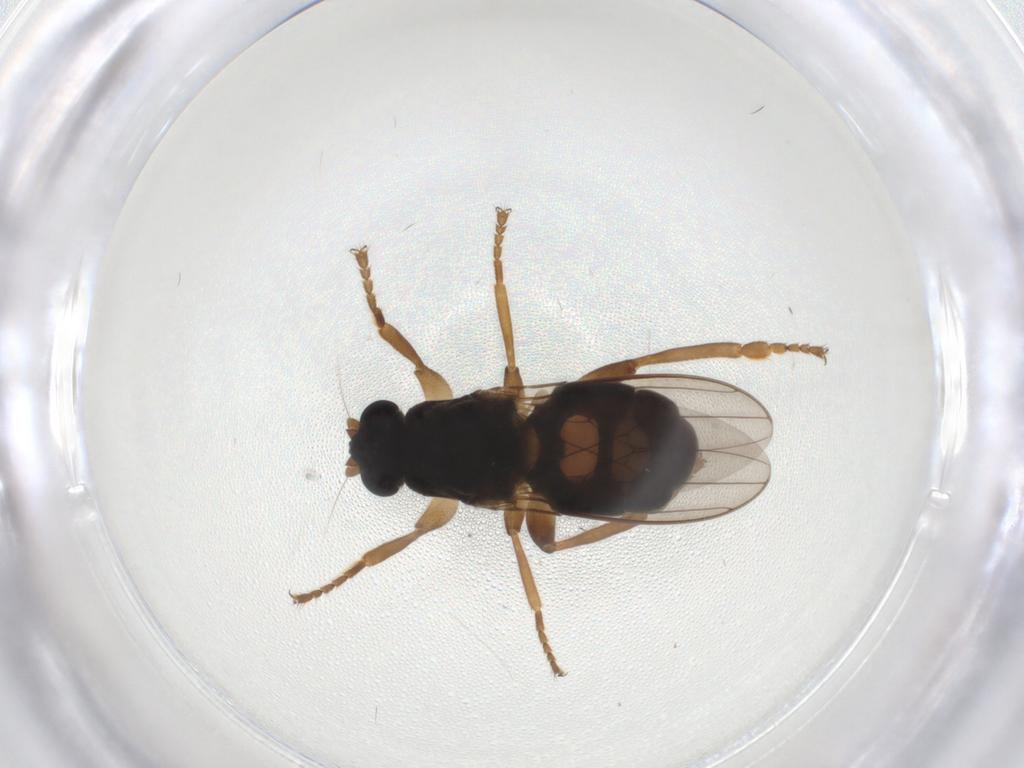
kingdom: Animalia
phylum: Arthropoda
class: Insecta
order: Diptera
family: Sphaeroceridae
